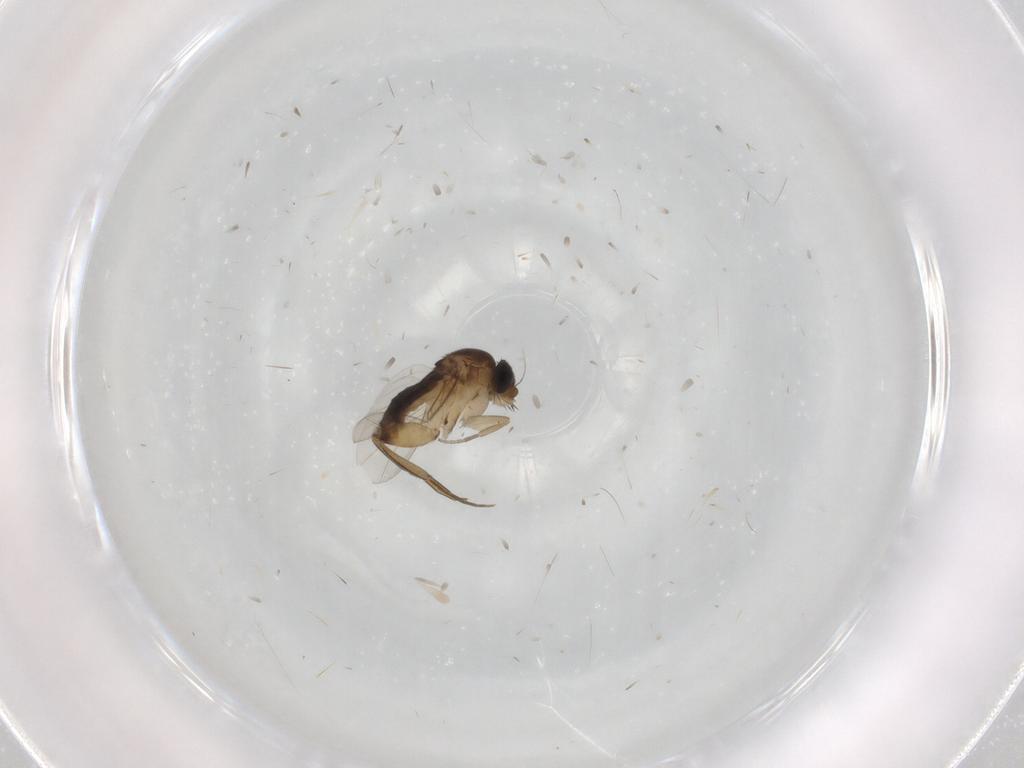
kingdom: Animalia
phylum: Arthropoda
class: Insecta
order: Diptera
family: Phoridae
